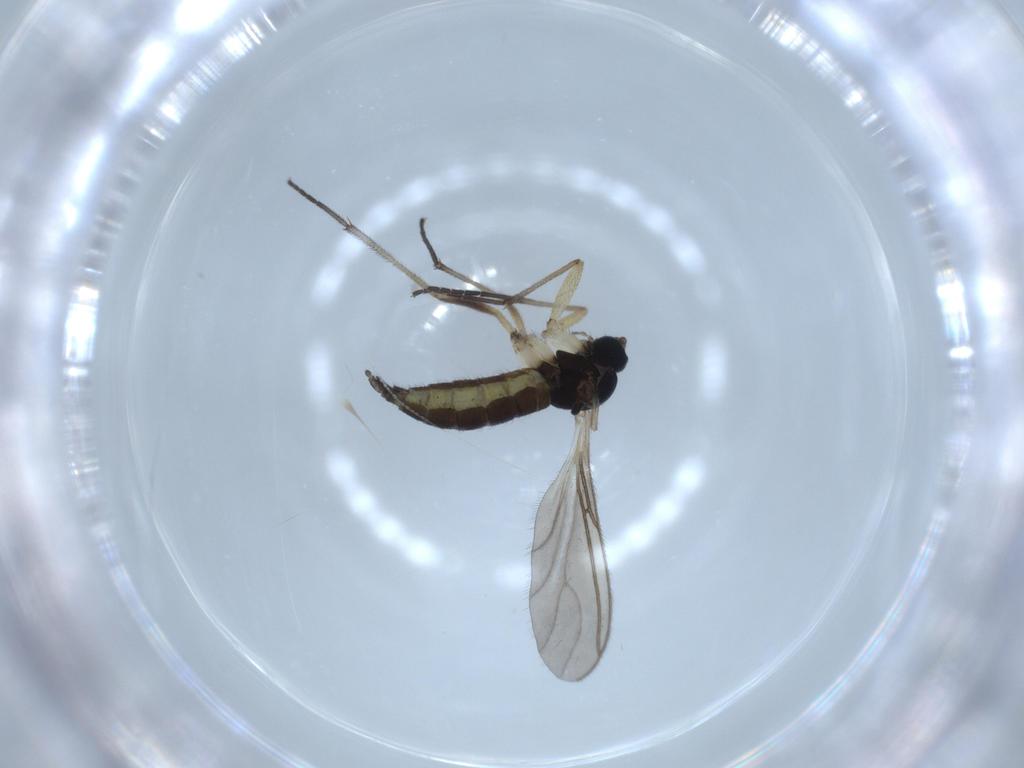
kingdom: Animalia
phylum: Arthropoda
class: Insecta
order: Diptera
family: Sciaridae
